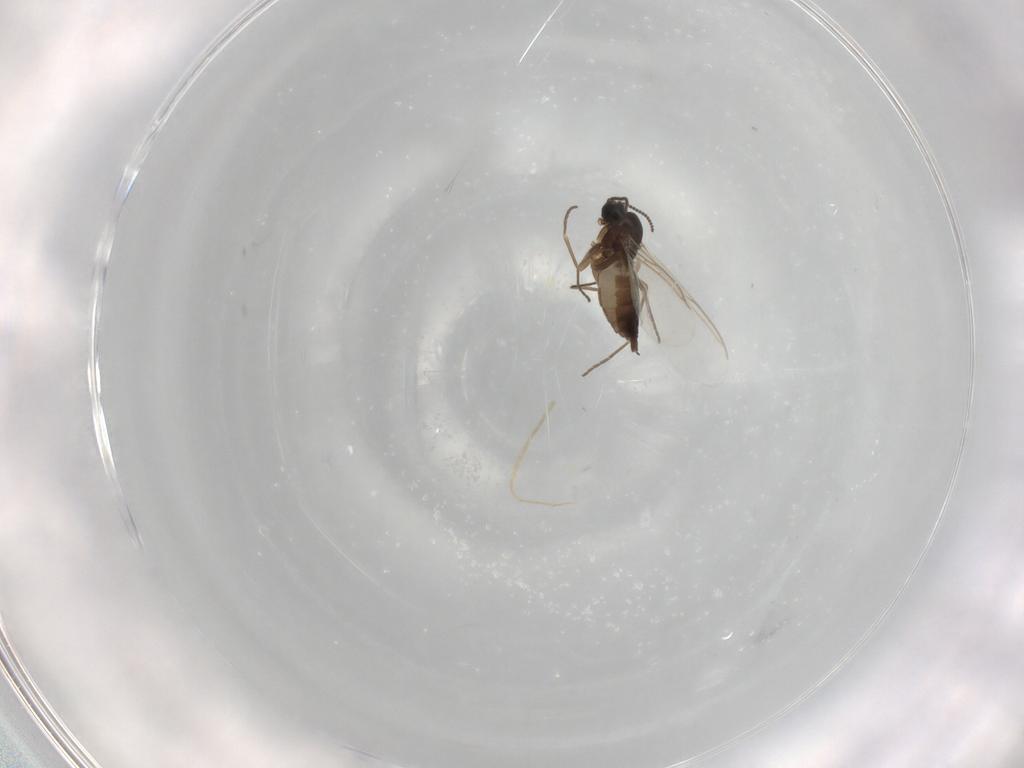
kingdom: Animalia
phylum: Arthropoda
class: Insecta
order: Diptera
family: Sciaridae
